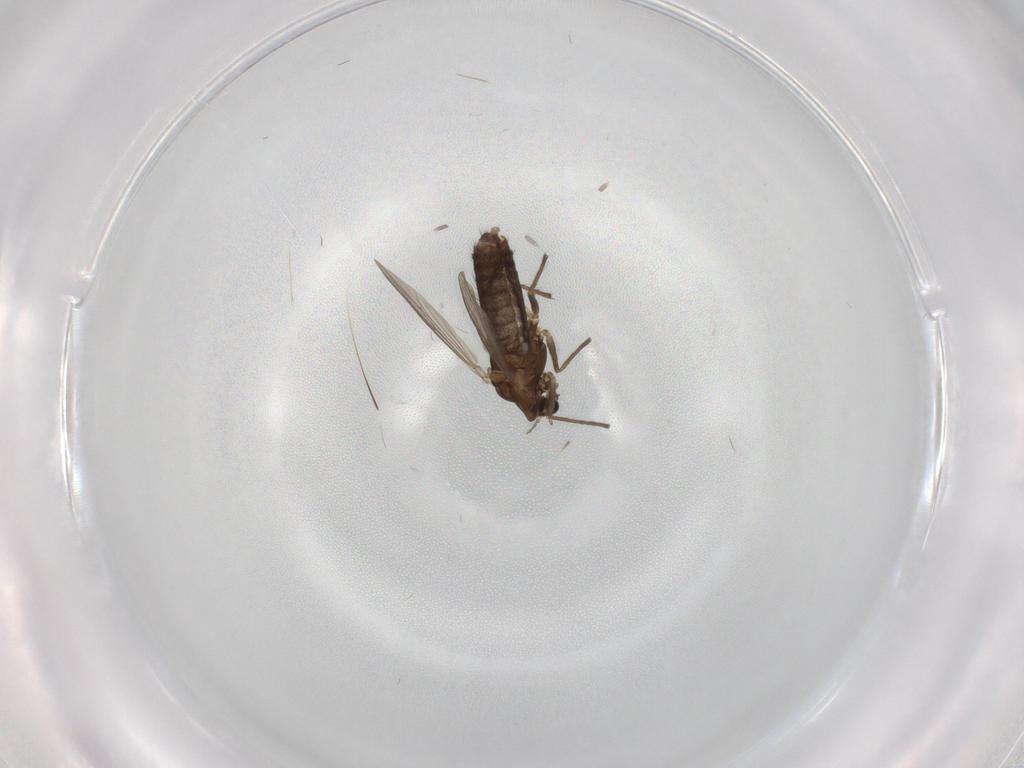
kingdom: Animalia
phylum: Arthropoda
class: Insecta
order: Diptera
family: Chironomidae
